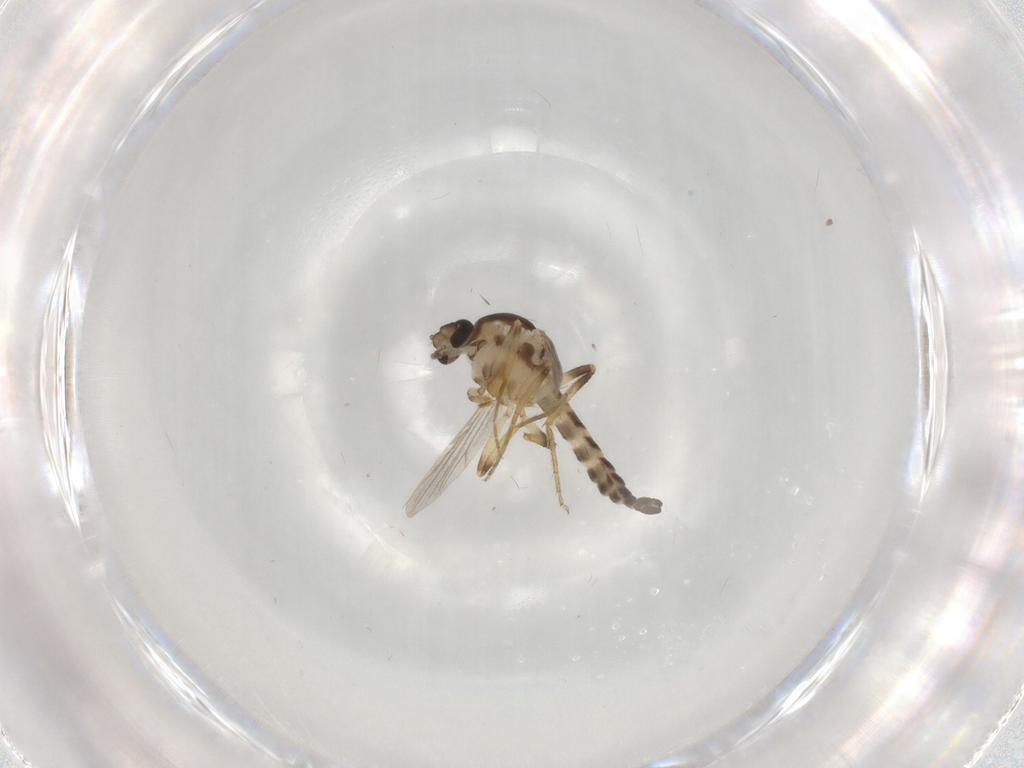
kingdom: Animalia
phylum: Arthropoda
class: Insecta
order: Diptera
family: Ceratopogonidae
